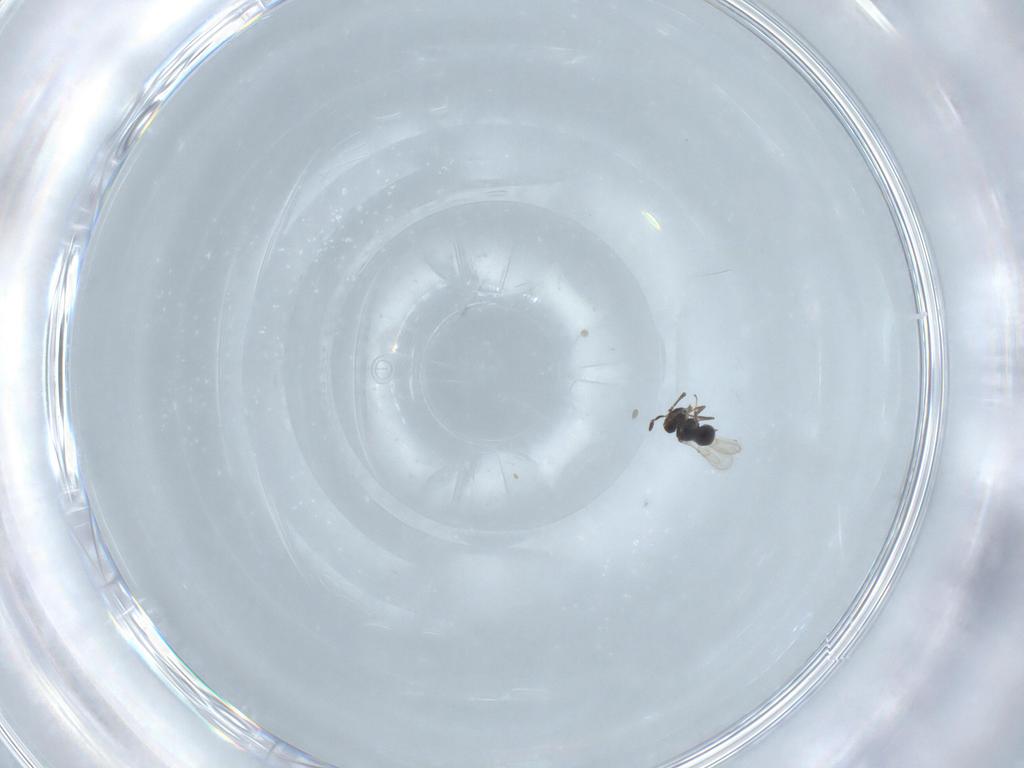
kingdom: Animalia
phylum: Arthropoda
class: Insecta
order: Hymenoptera
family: Scelionidae
